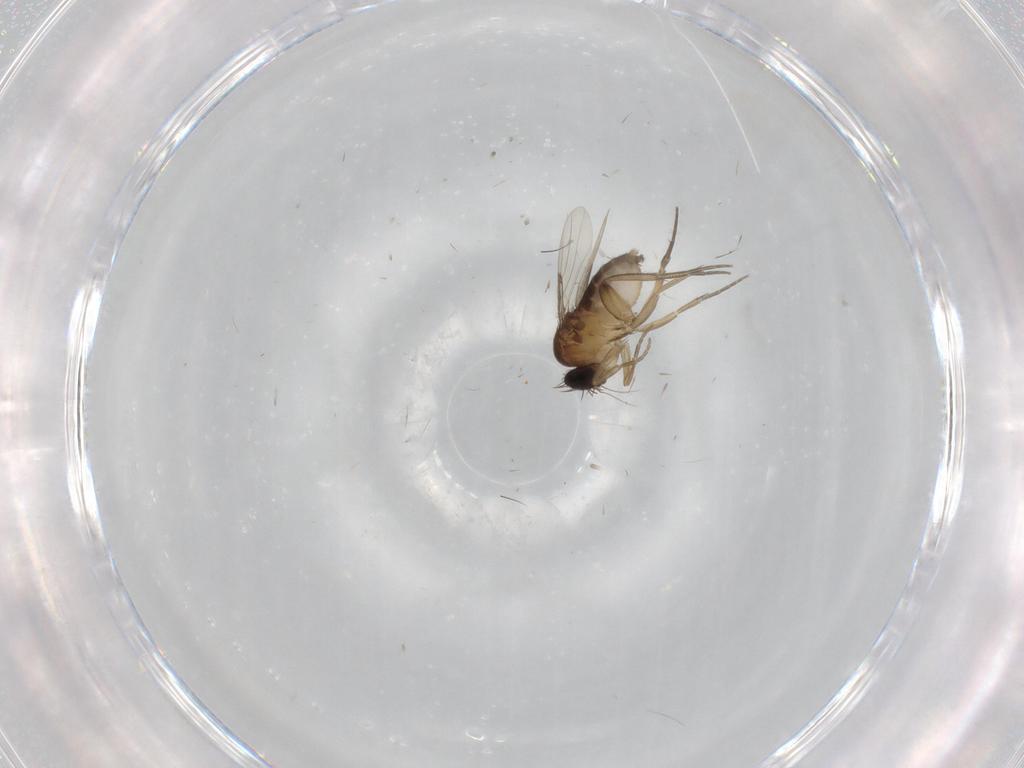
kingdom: Animalia
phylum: Arthropoda
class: Insecta
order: Diptera
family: Phoridae
